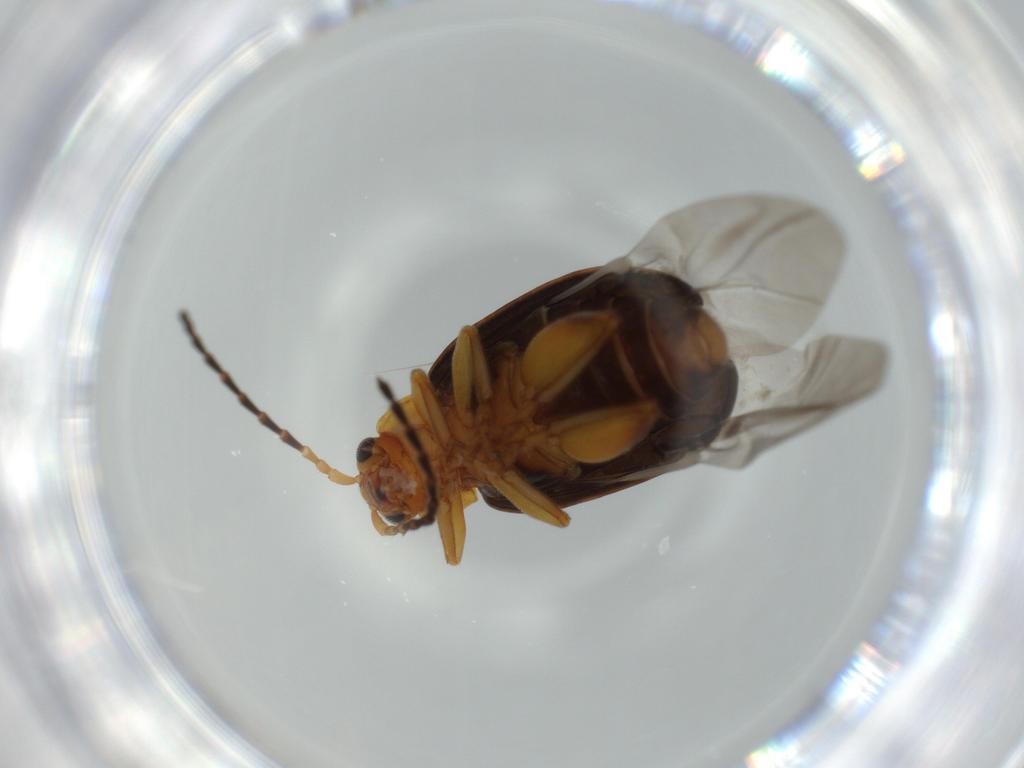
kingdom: Animalia
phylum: Arthropoda
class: Insecta
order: Coleoptera
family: Chrysomelidae
